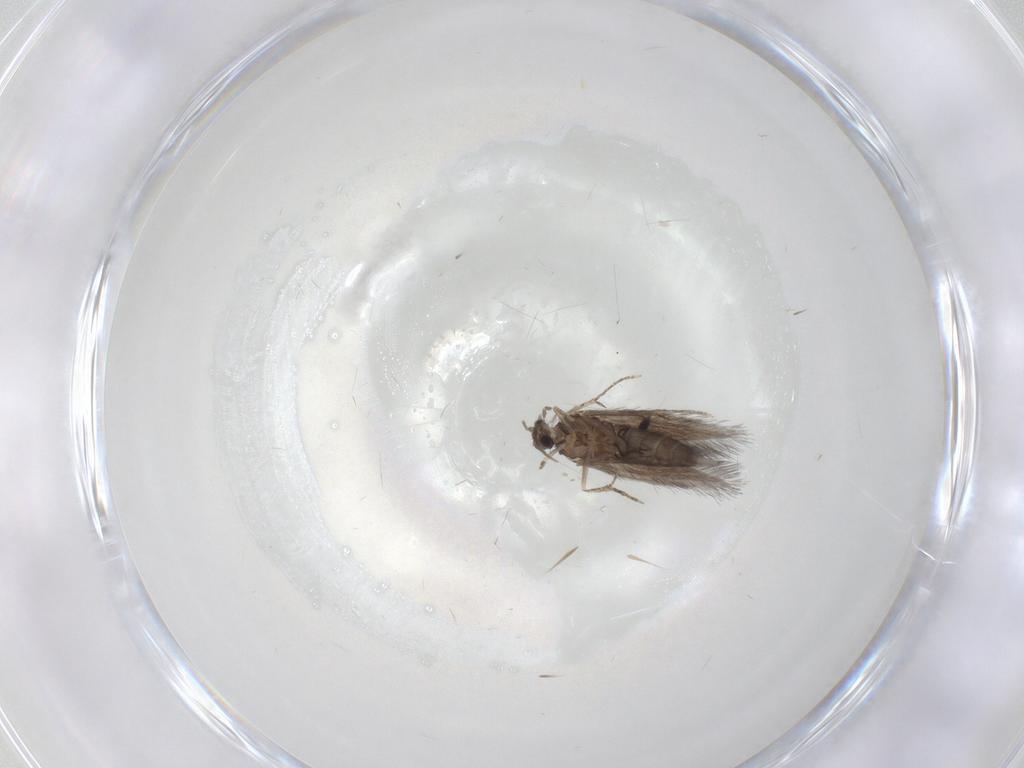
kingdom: Animalia
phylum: Arthropoda
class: Insecta
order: Trichoptera
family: Hydroptilidae
